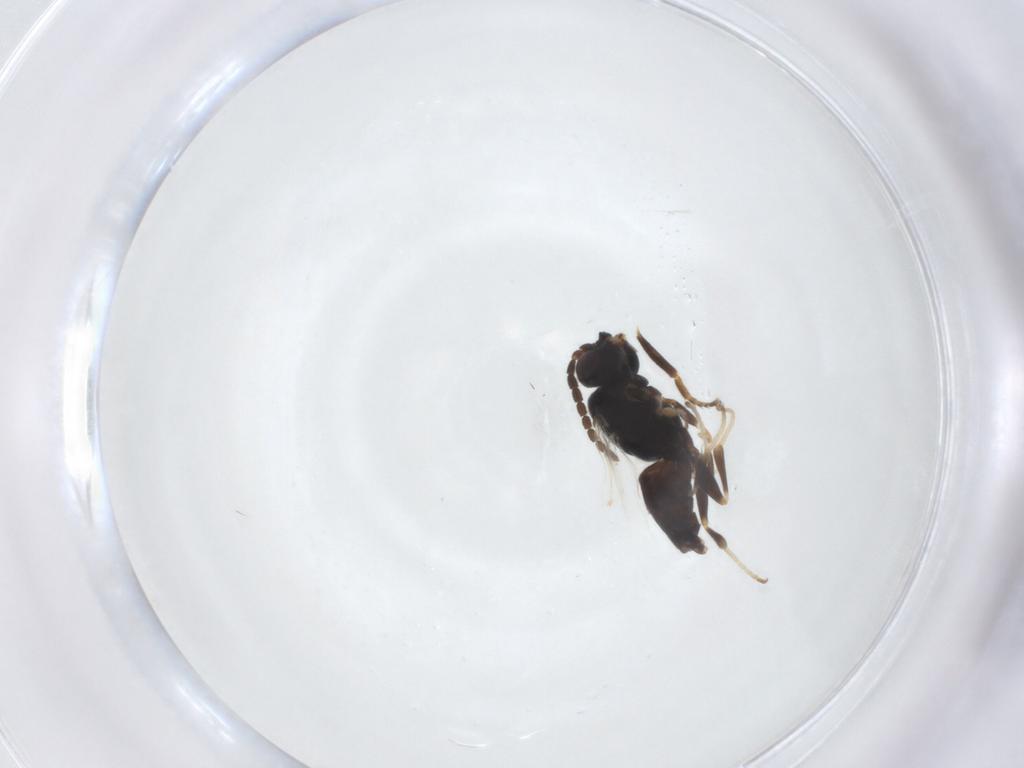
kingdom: Animalia
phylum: Arthropoda
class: Insecta
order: Hymenoptera
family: Dryinidae
